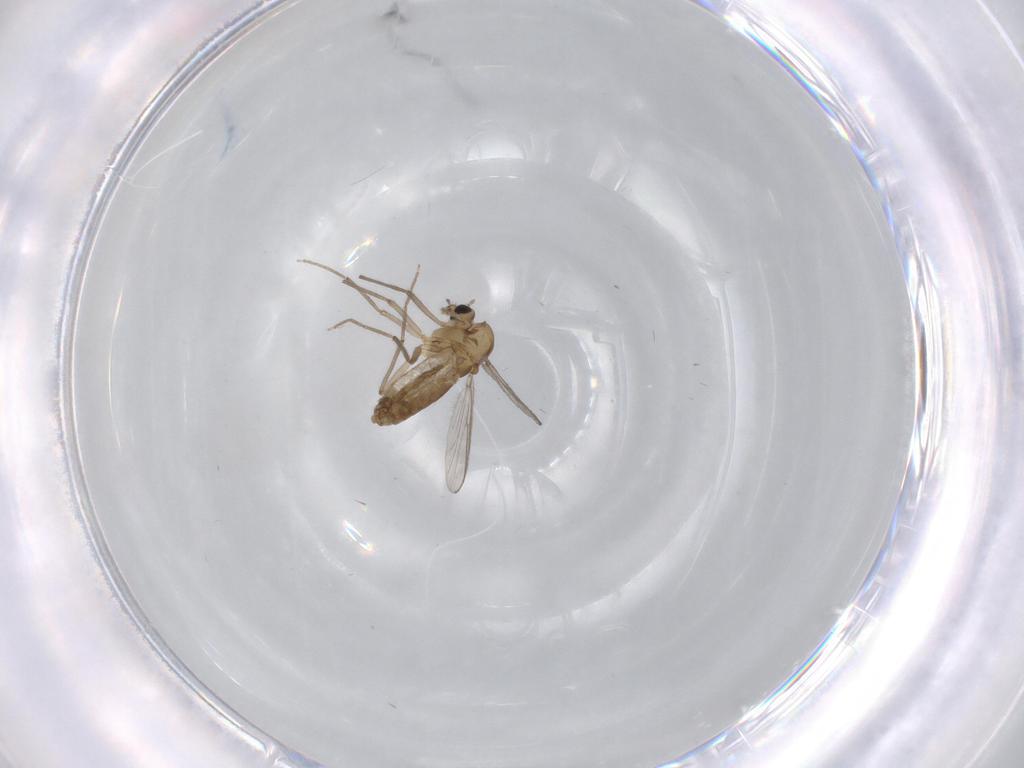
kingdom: Animalia
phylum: Arthropoda
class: Insecta
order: Diptera
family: Chironomidae
